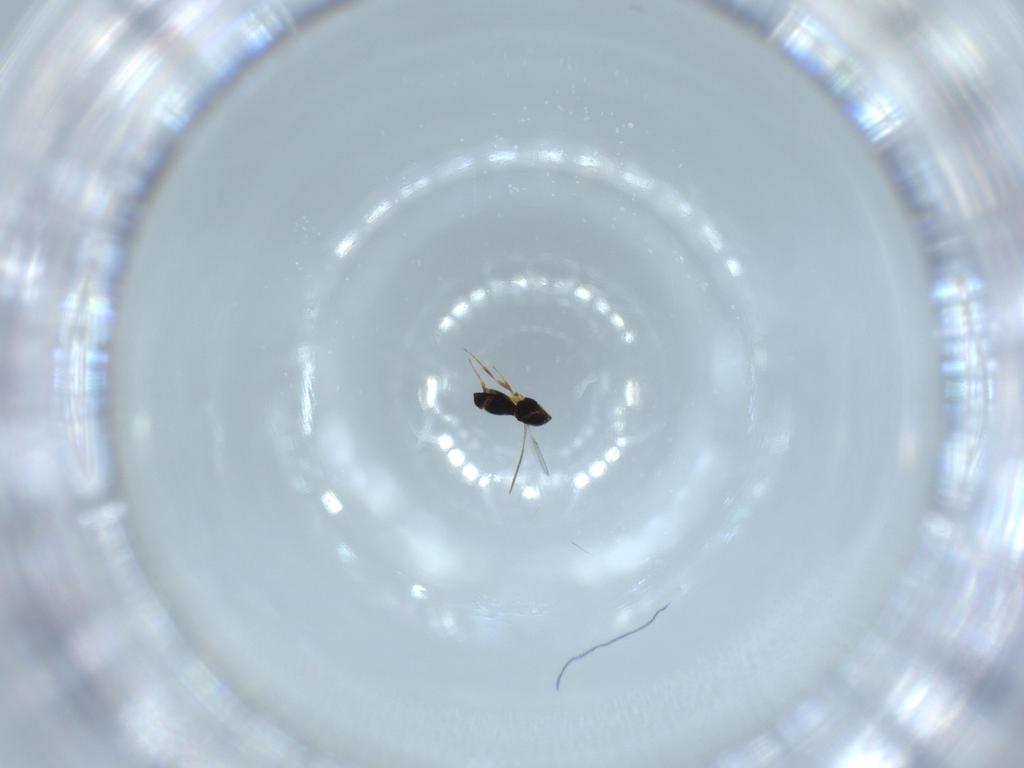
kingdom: Animalia
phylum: Arthropoda
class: Insecta
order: Hymenoptera
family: Scelionidae
